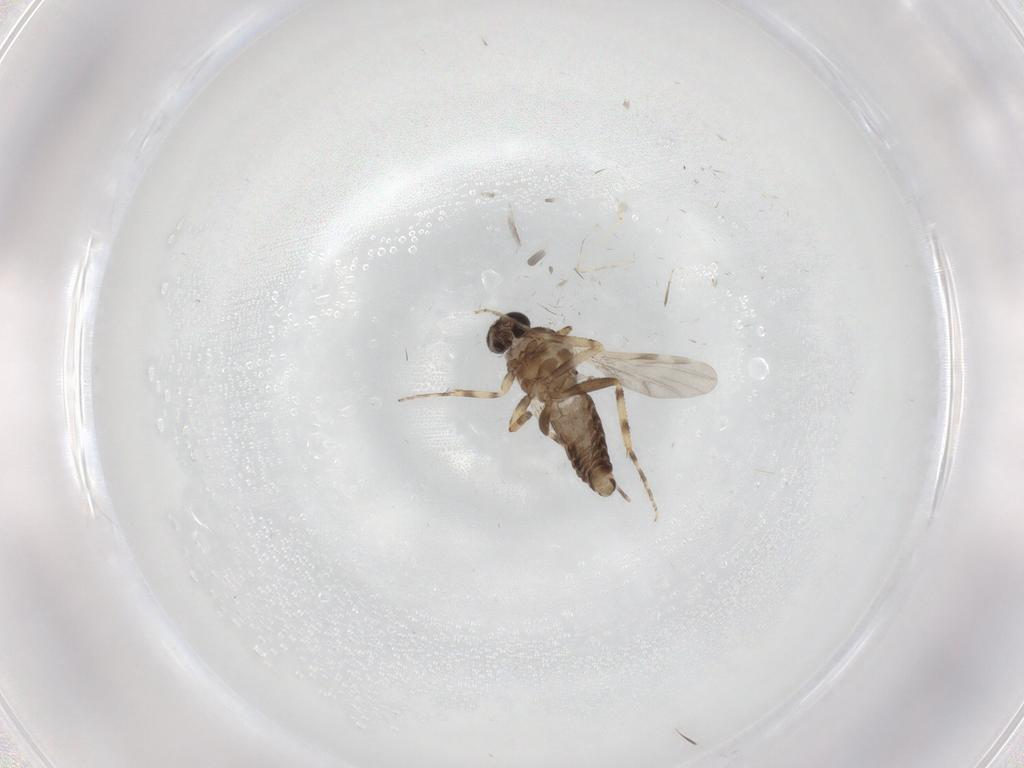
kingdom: Animalia
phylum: Arthropoda
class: Insecta
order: Diptera
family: Ceratopogonidae
